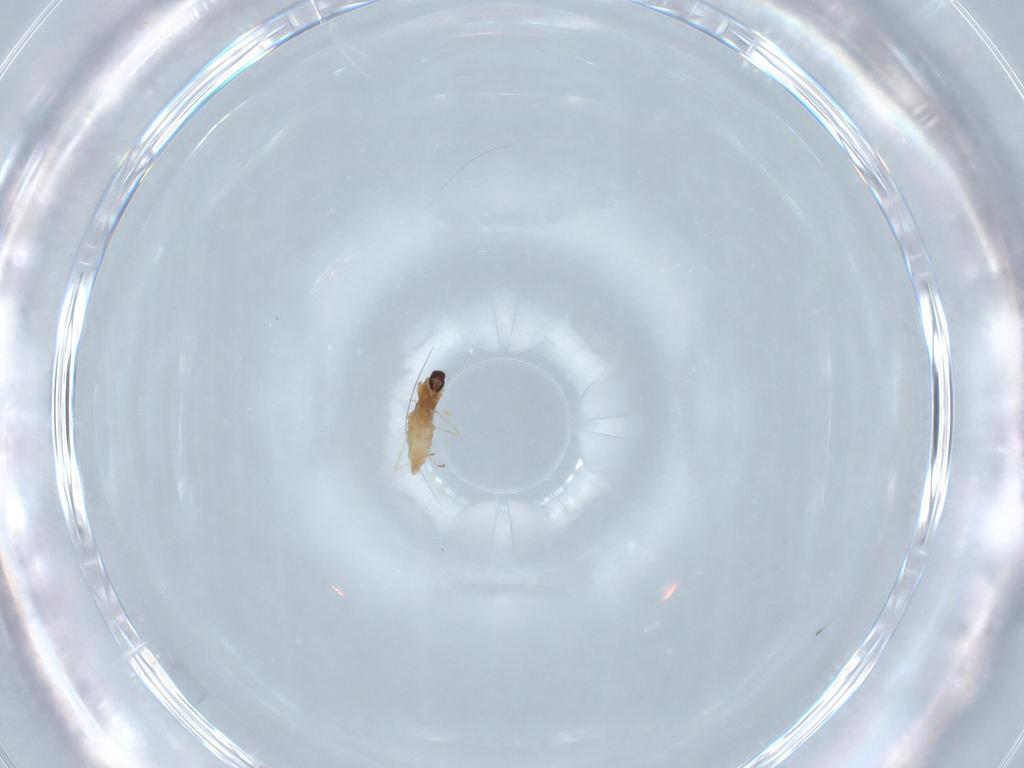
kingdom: Animalia
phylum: Arthropoda
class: Insecta
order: Diptera
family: Cecidomyiidae
